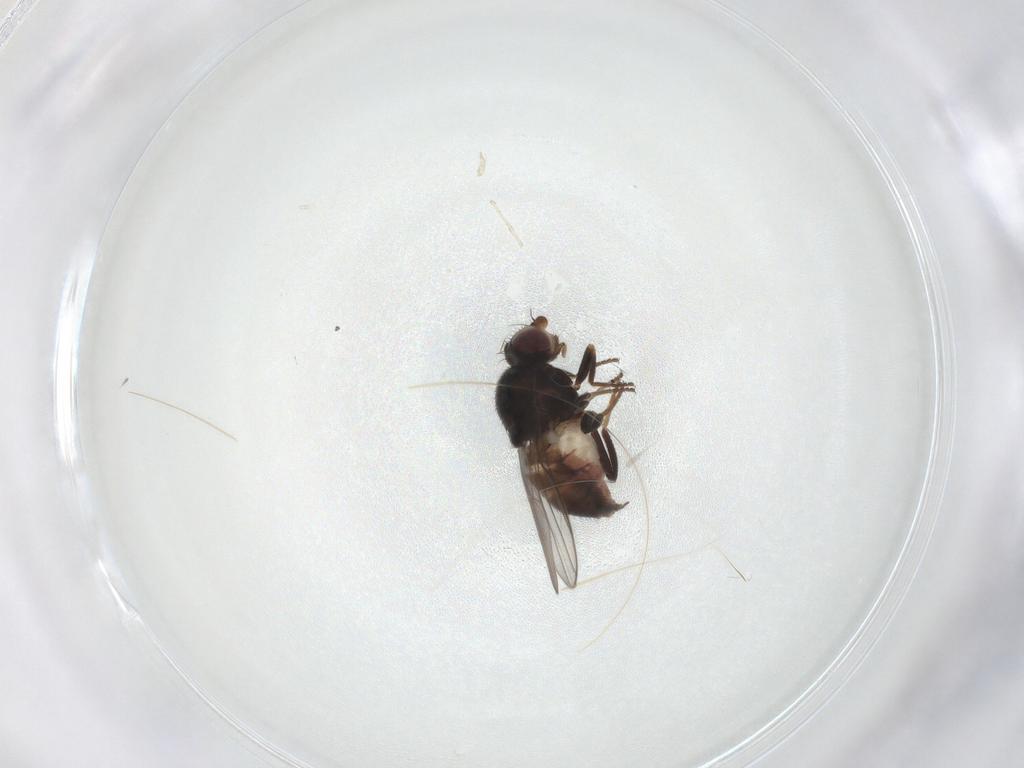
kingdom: Animalia
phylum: Arthropoda
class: Insecta
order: Diptera
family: Chloropidae
